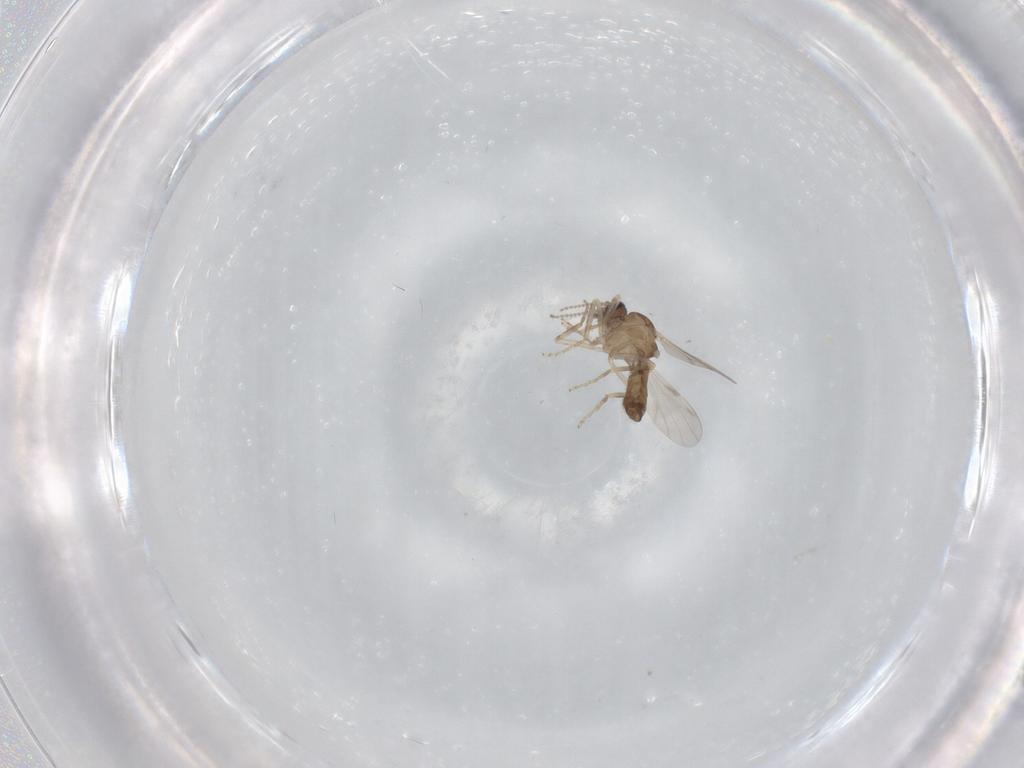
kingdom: Animalia
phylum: Arthropoda
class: Insecta
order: Diptera
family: Ceratopogonidae
